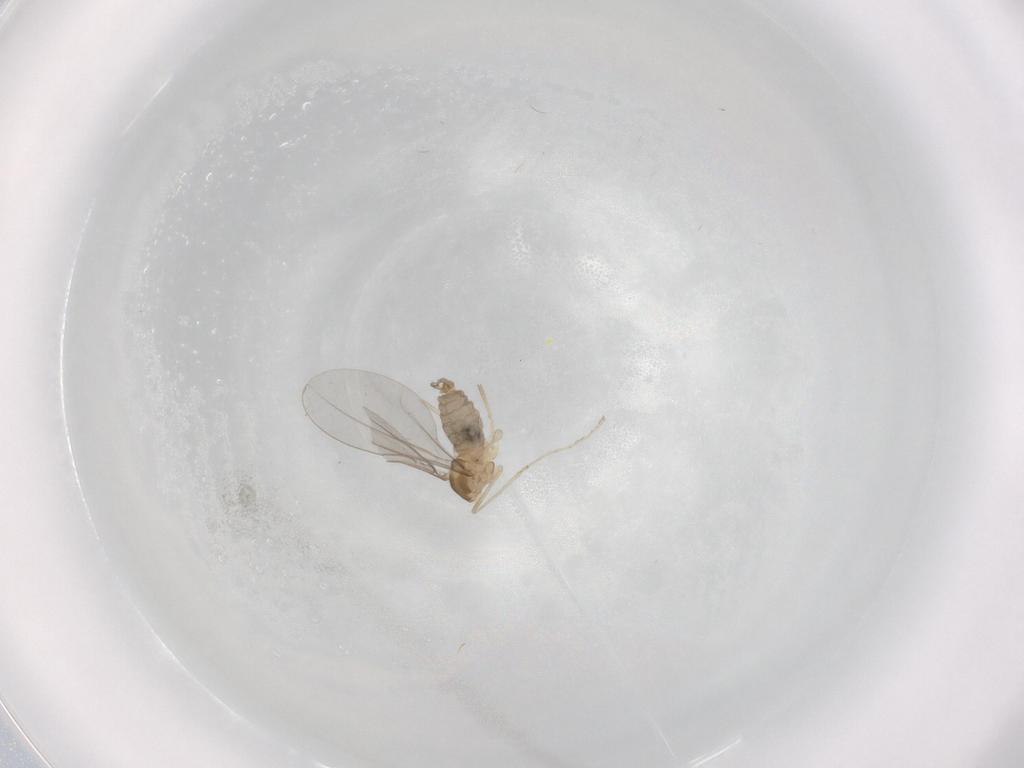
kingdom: Animalia
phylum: Arthropoda
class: Insecta
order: Diptera
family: Cecidomyiidae
